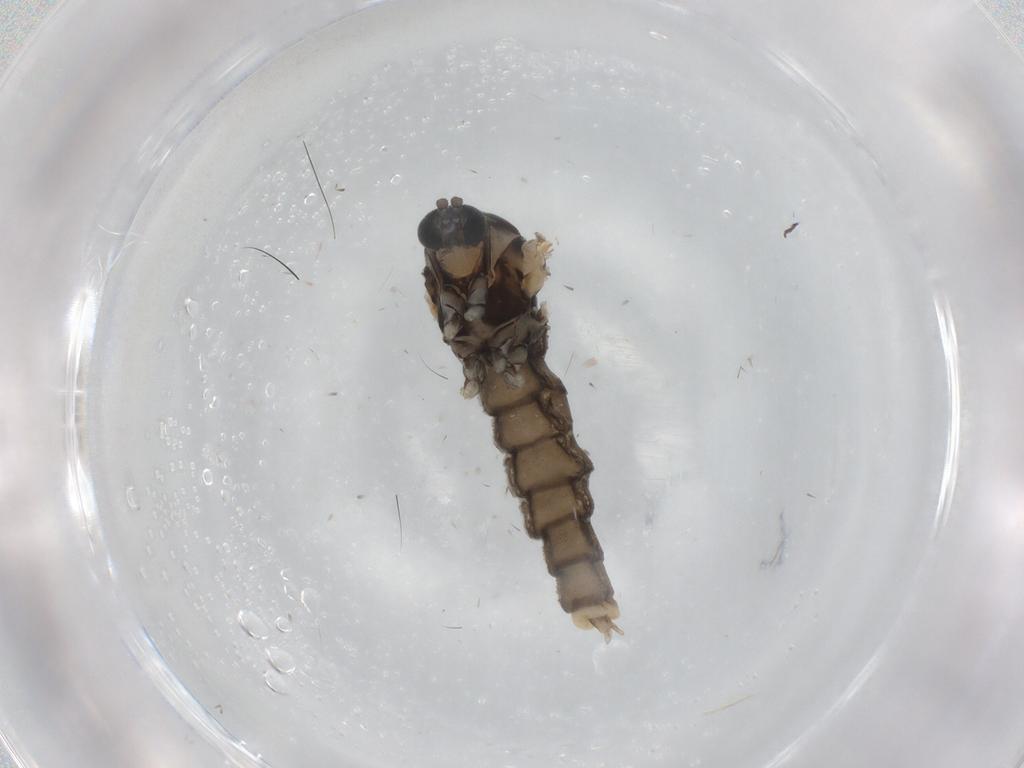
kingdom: Animalia
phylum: Arthropoda
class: Insecta
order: Diptera
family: Cecidomyiidae
